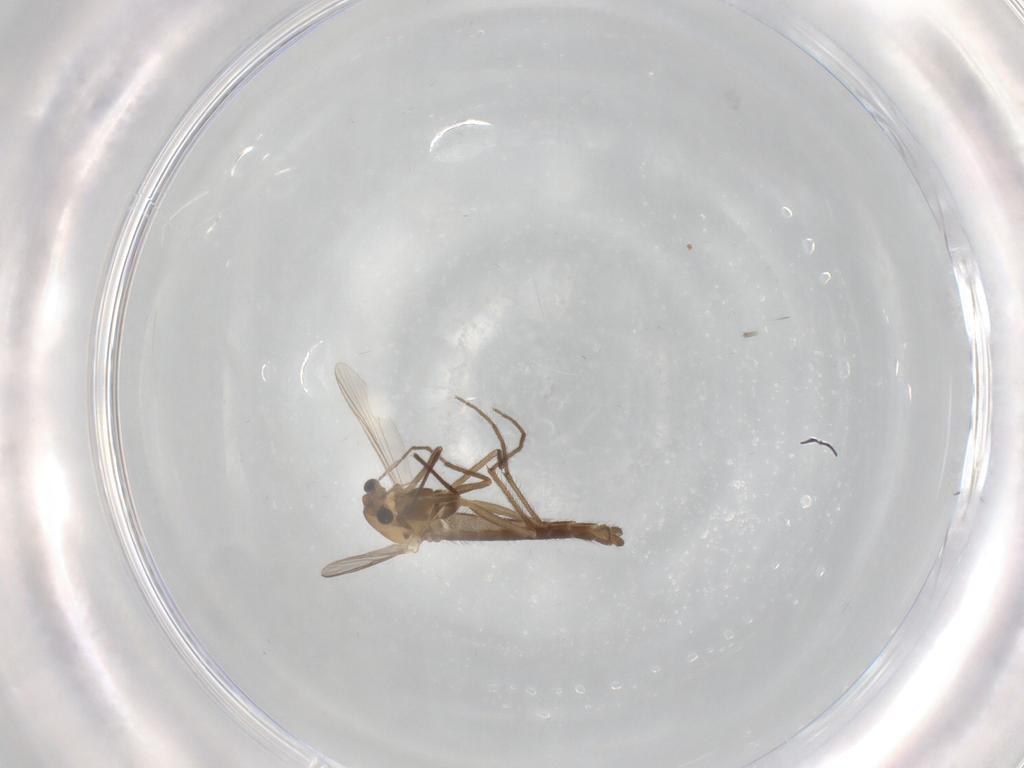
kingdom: Animalia
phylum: Arthropoda
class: Insecta
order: Diptera
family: Chironomidae
